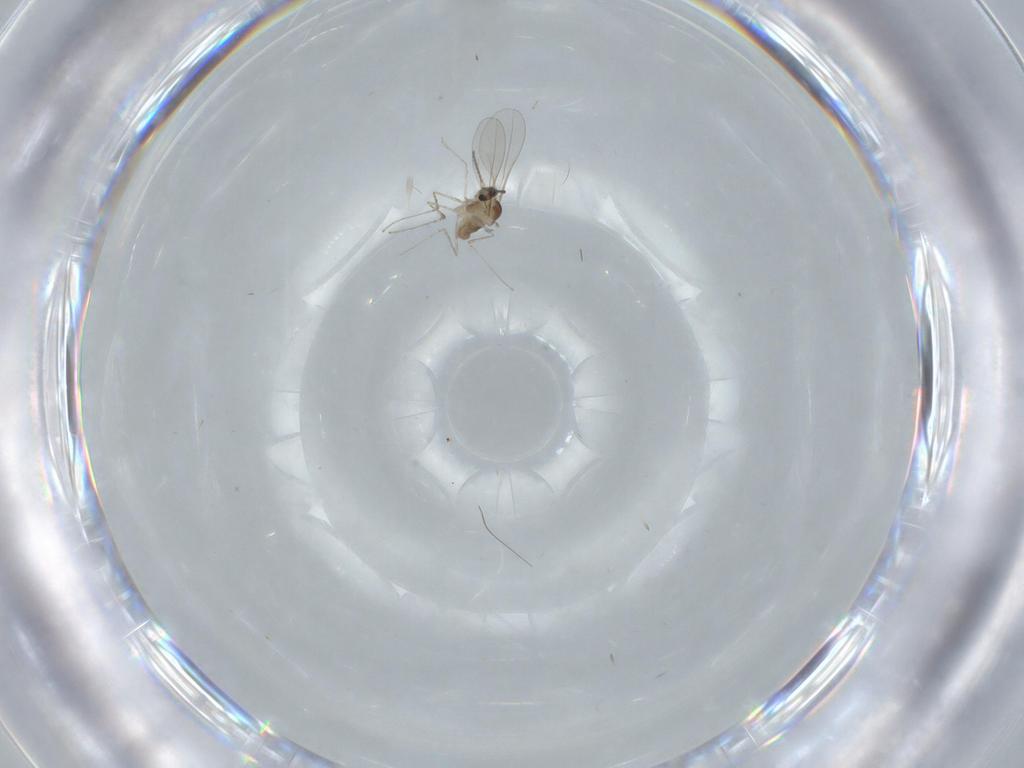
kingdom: Animalia
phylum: Arthropoda
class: Insecta
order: Diptera
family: Cecidomyiidae
